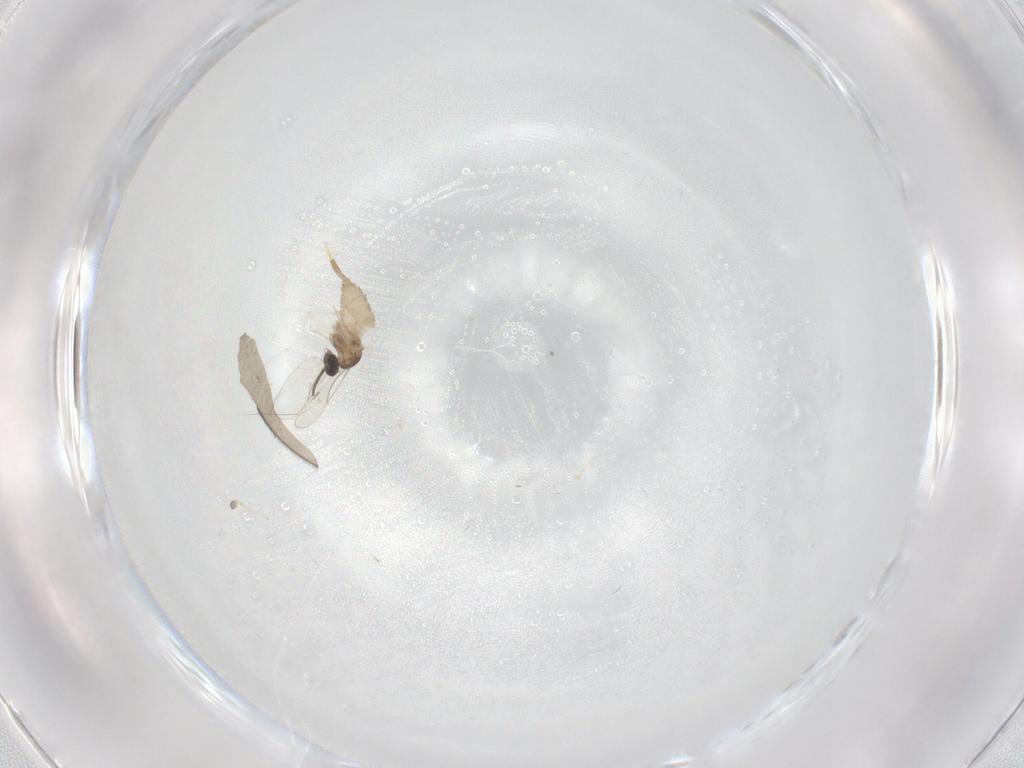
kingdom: Animalia
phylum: Arthropoda
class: Insecta
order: Diptera
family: Cecidomyiidae
